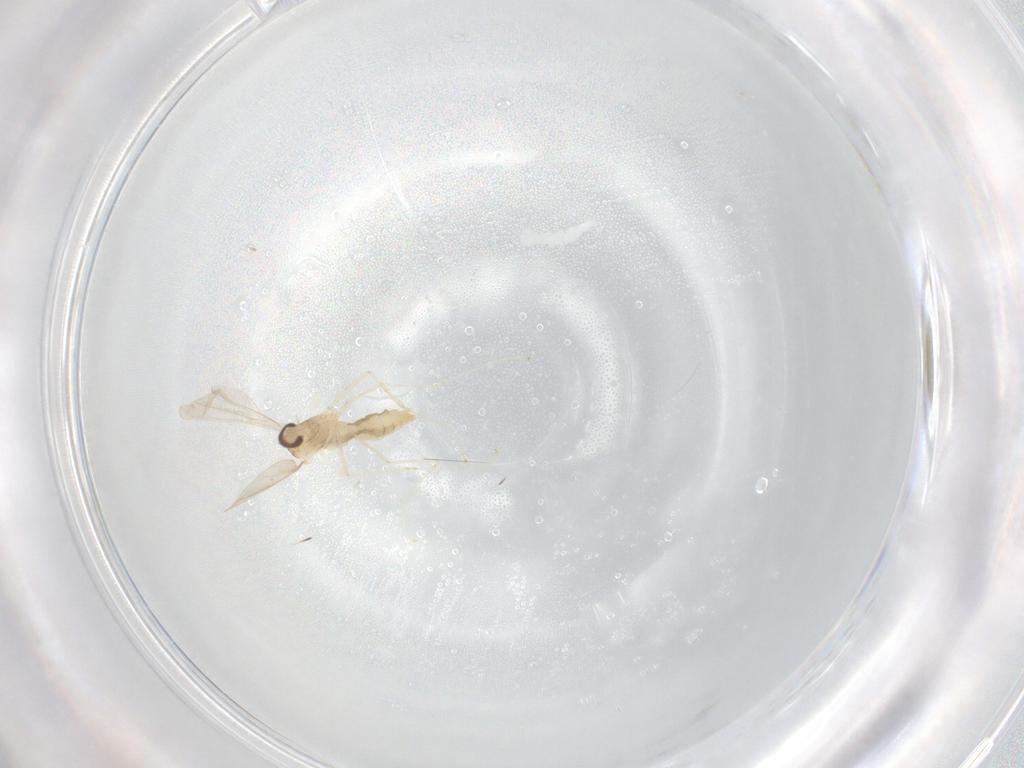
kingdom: Animalia
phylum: Arthropoda
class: Insecta
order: Diptera
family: Cecidomyiidae
